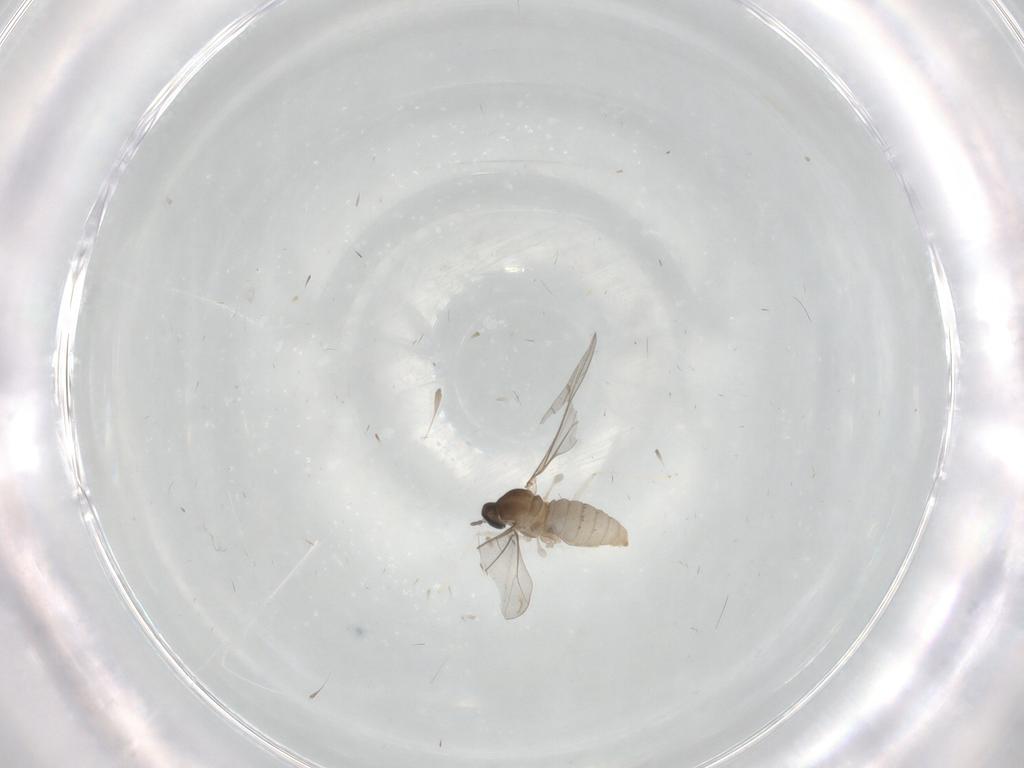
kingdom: Animalia
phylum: Arthropoda
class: Insecta
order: Diptera
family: Cecidomyiidae
